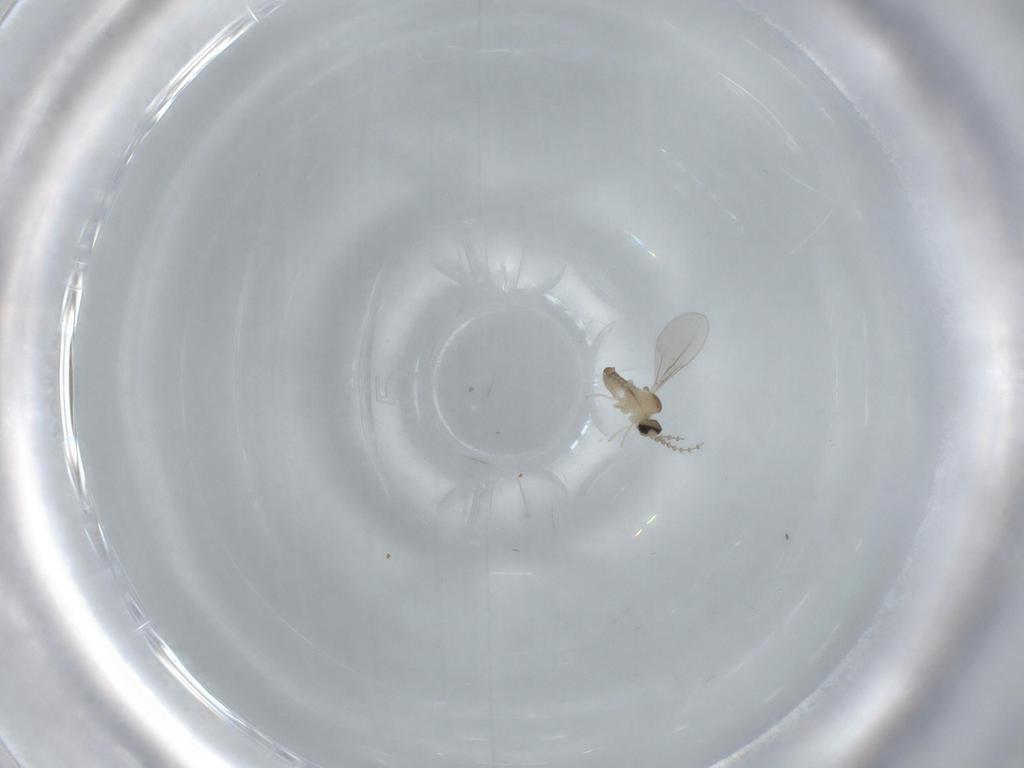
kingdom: Animalia
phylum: Arthropoda
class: Insecta
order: Diptera
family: Cecidomyiidae
